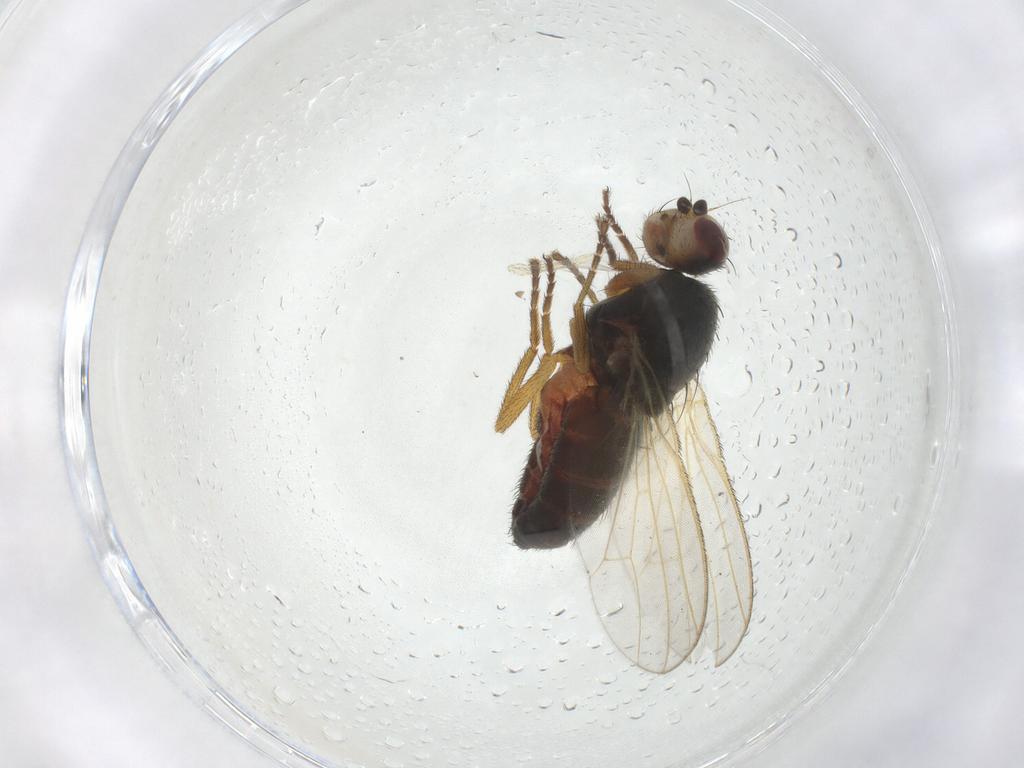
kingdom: Animalia
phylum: Arthropoda
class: Insecta
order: Diptera
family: Heleomyzidae
